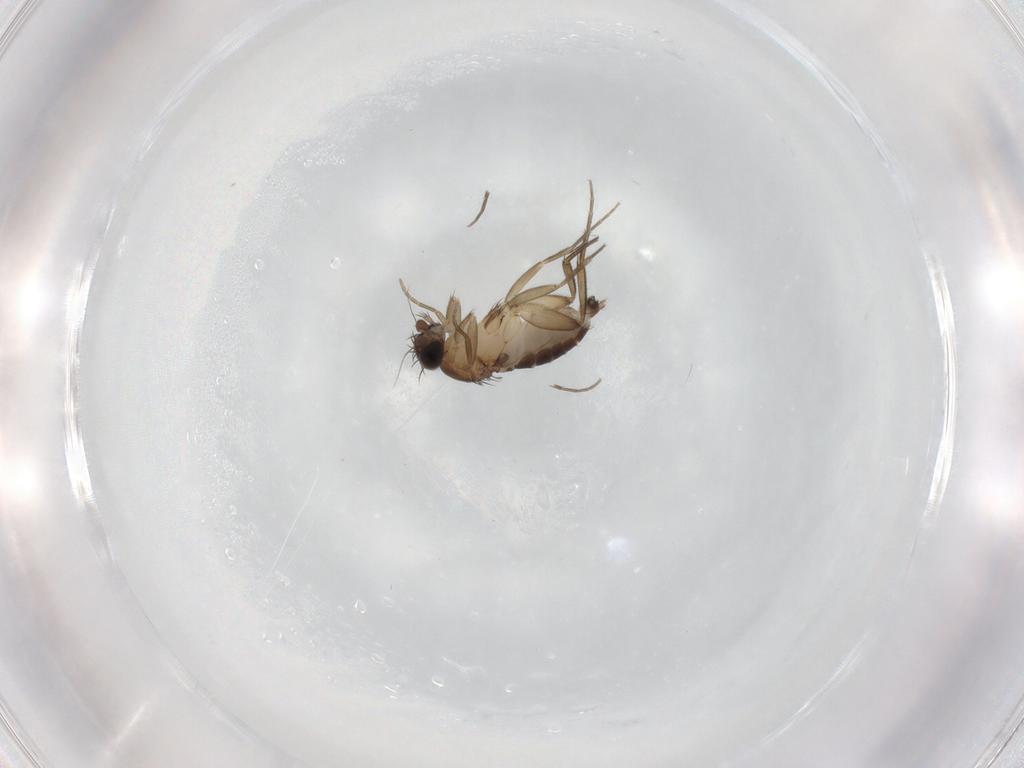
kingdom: Animalia
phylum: Arthropoda
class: Insecta
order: Diptera
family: Phoridae
